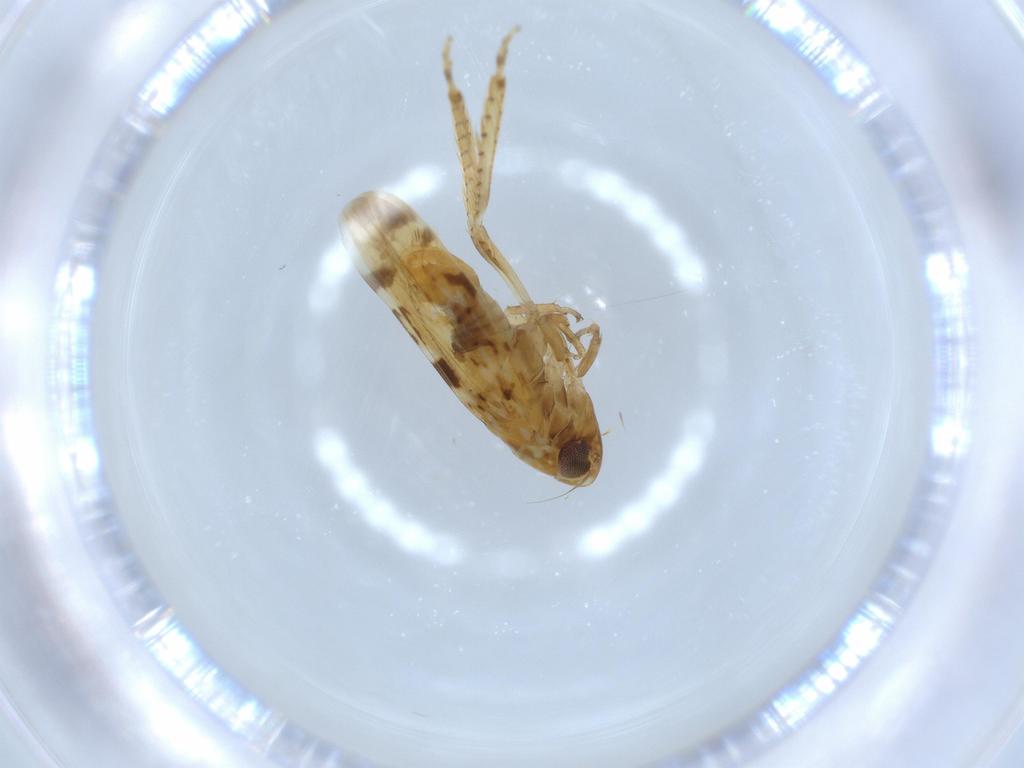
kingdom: Animalia
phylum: Arthropoda
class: Insecta
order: Hemiptera
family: Cicadellidae
